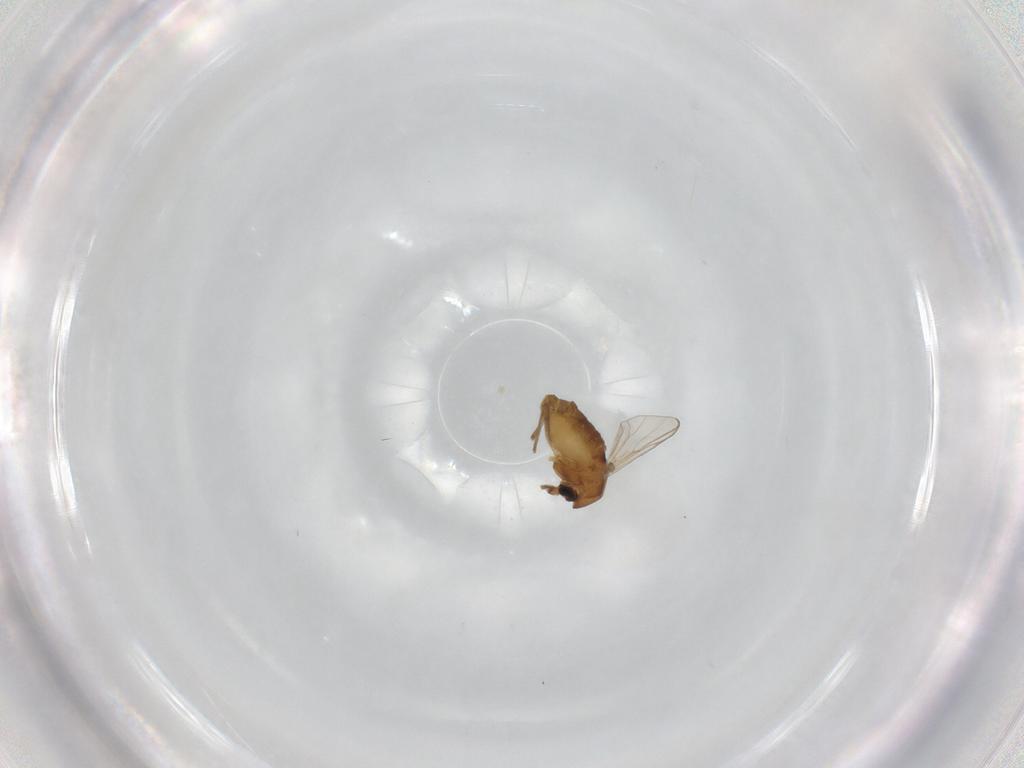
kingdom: Animalia
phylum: Arthropoda
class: Insecta
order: Diptera
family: Chironomidae
